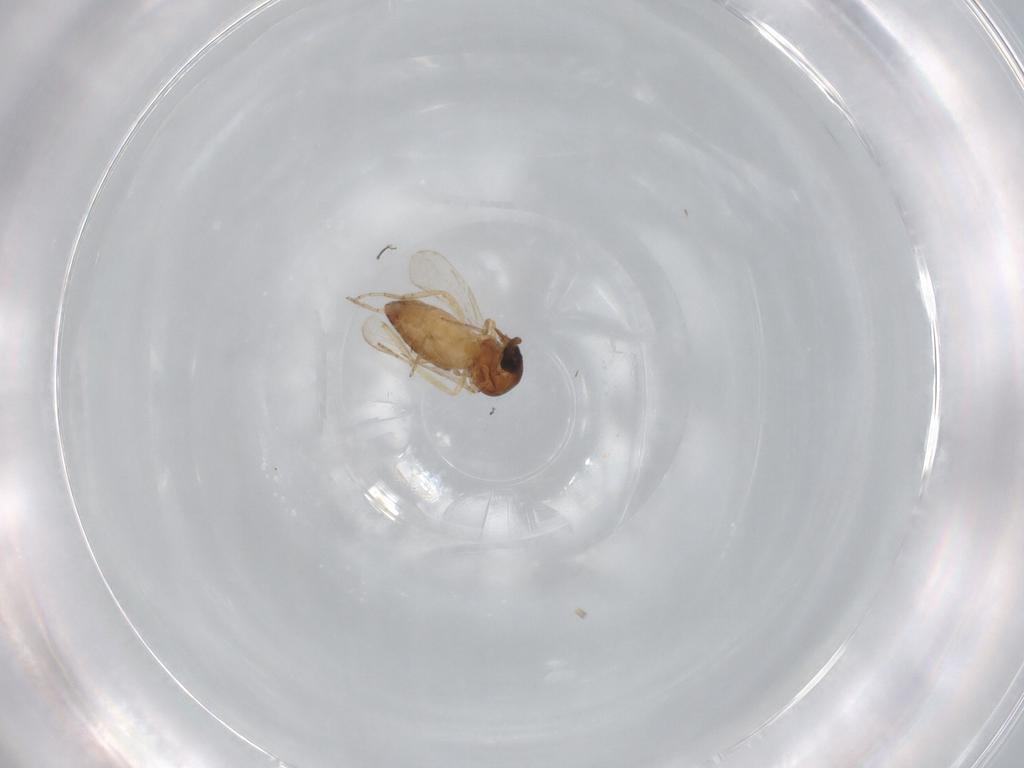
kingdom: Animalia
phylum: Arthropoda
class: Insecta
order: Diptera
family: Ceratopogonidae
